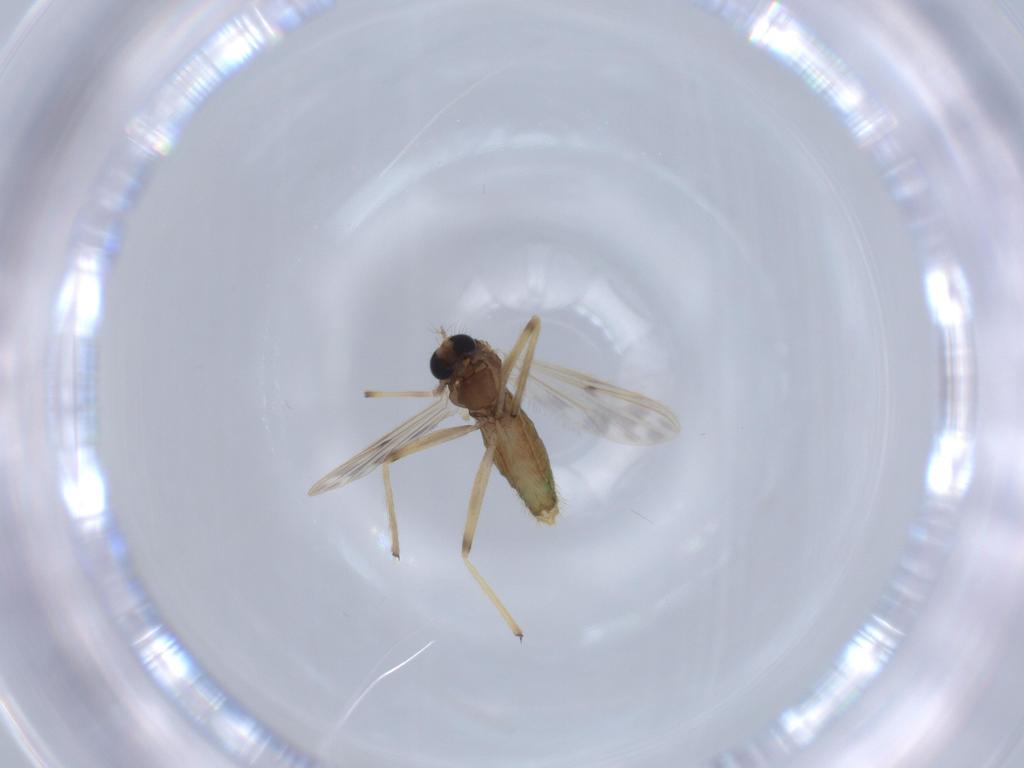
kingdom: Animalia
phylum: Arthropoda
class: Insecta
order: Diptera
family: Chironomidae
